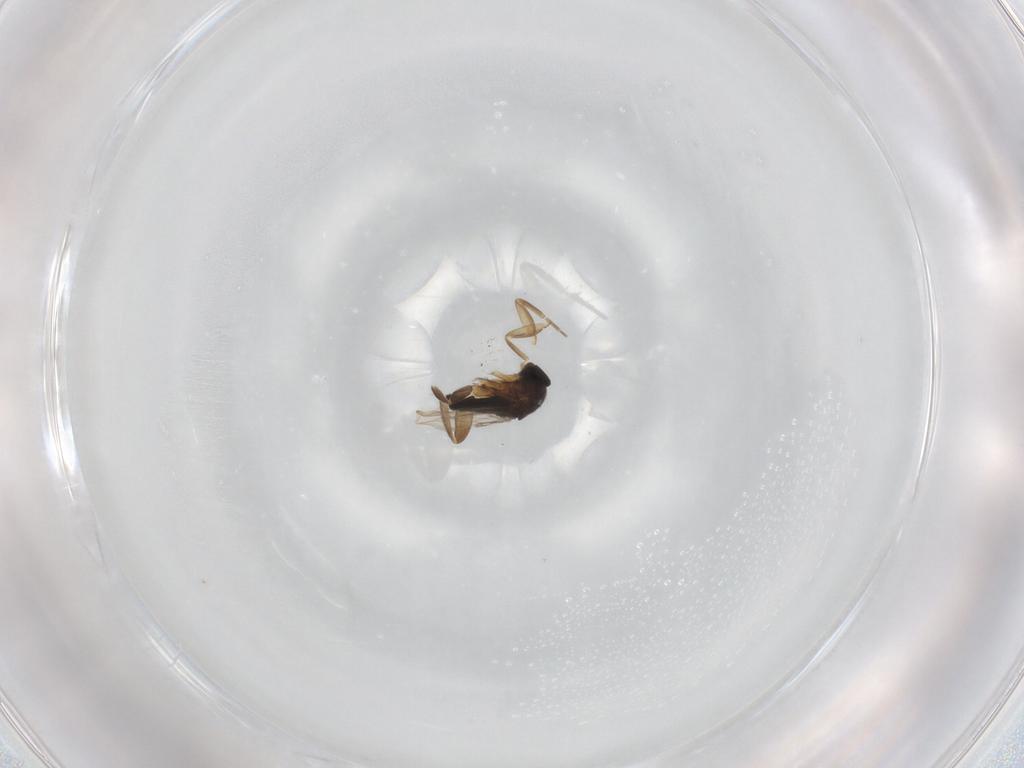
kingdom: Animalia
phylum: Arthropoda
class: Insecta
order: Diptera
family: Phoridae
